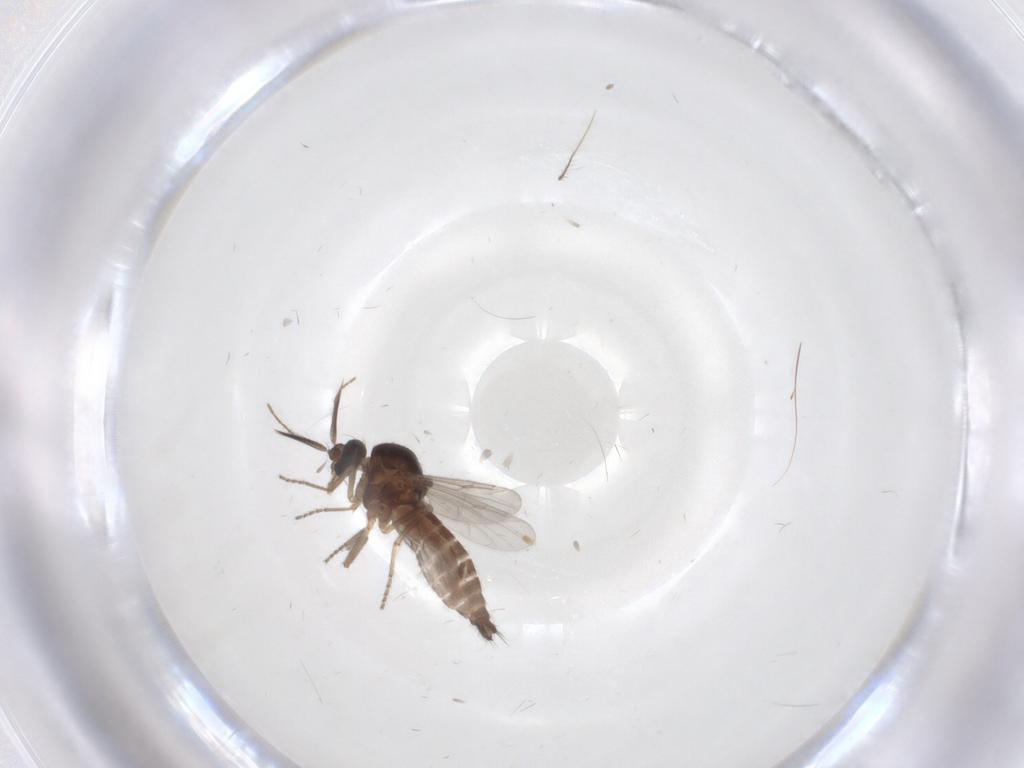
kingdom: Animalia
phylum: Arthropoda
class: Insecta
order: Diptera
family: Ceratopogonidae
